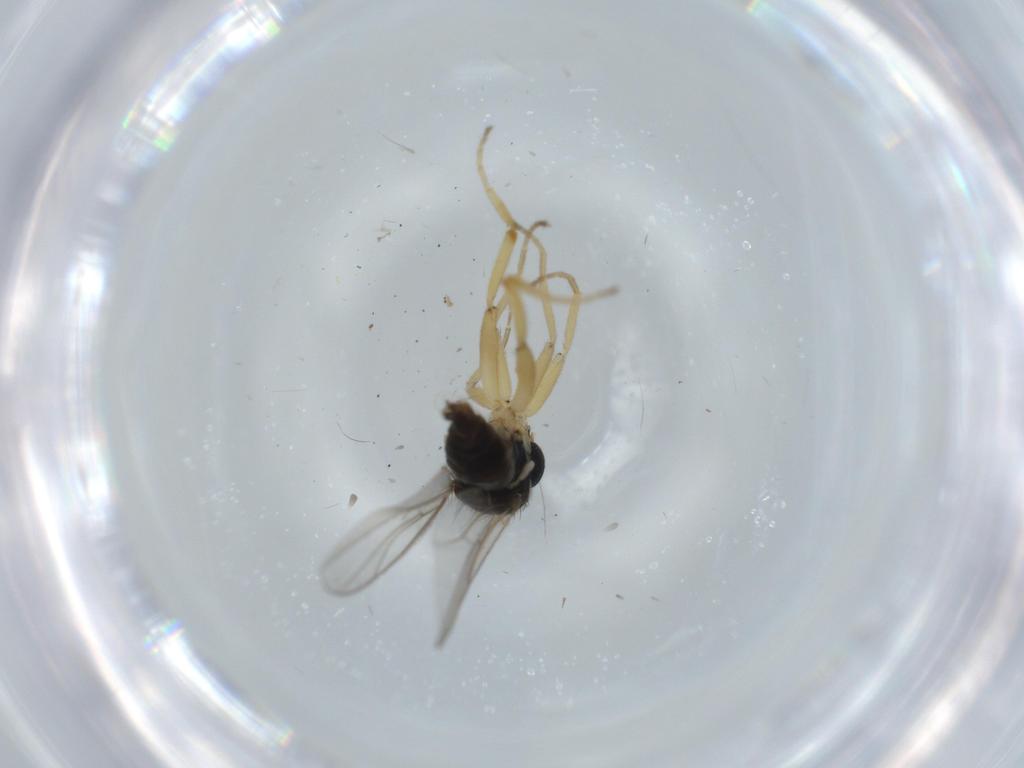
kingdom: Animalia
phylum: Arthropoda
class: Insecta
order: Diptera
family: Hybotidae
